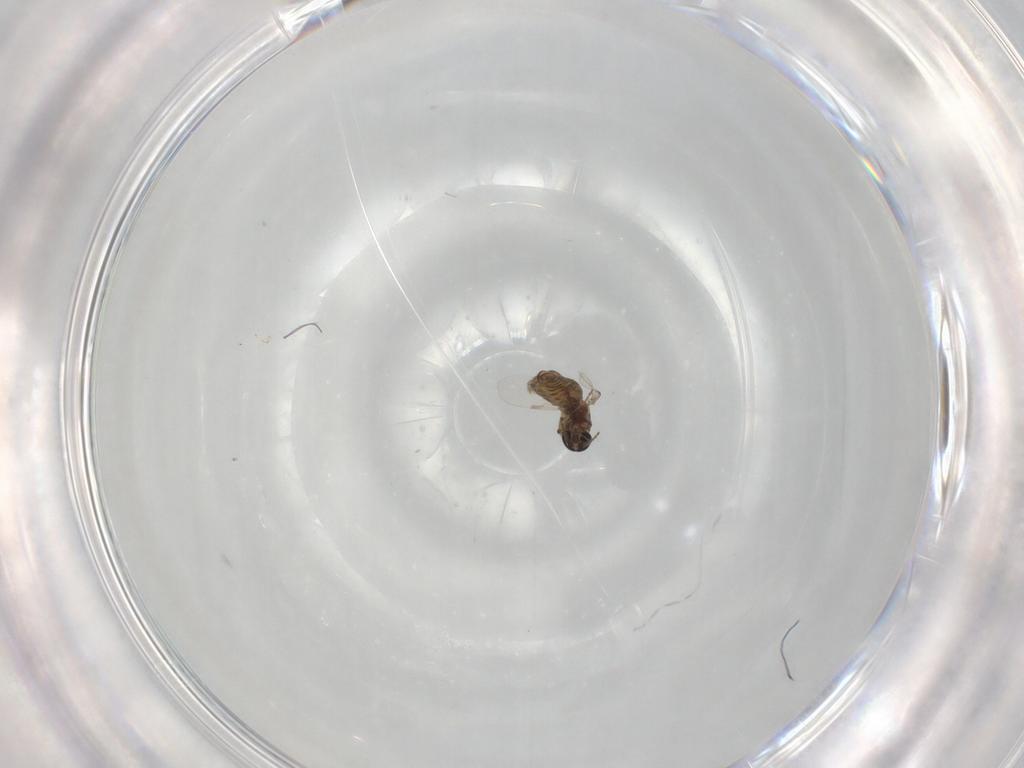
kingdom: Animalia
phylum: Arthropoda
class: Insecta
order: Diptera
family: Ceratopogonidae
